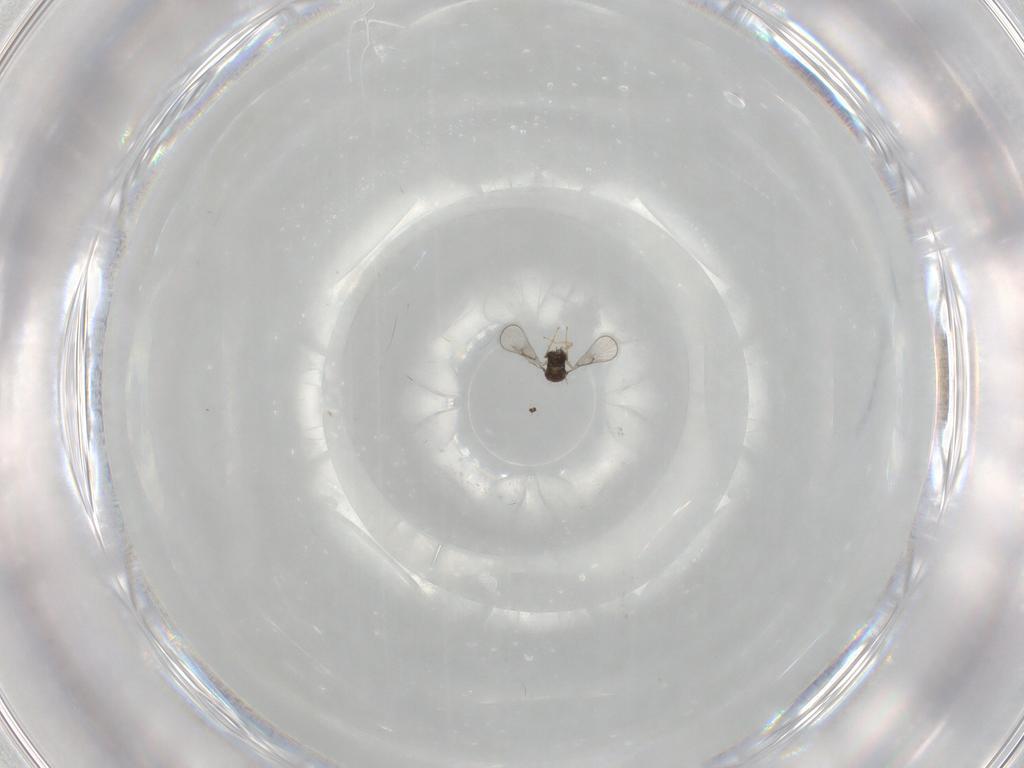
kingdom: Animalia
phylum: Arthropoda
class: Insecta
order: Hymenoptera
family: Trichogrammatidae
